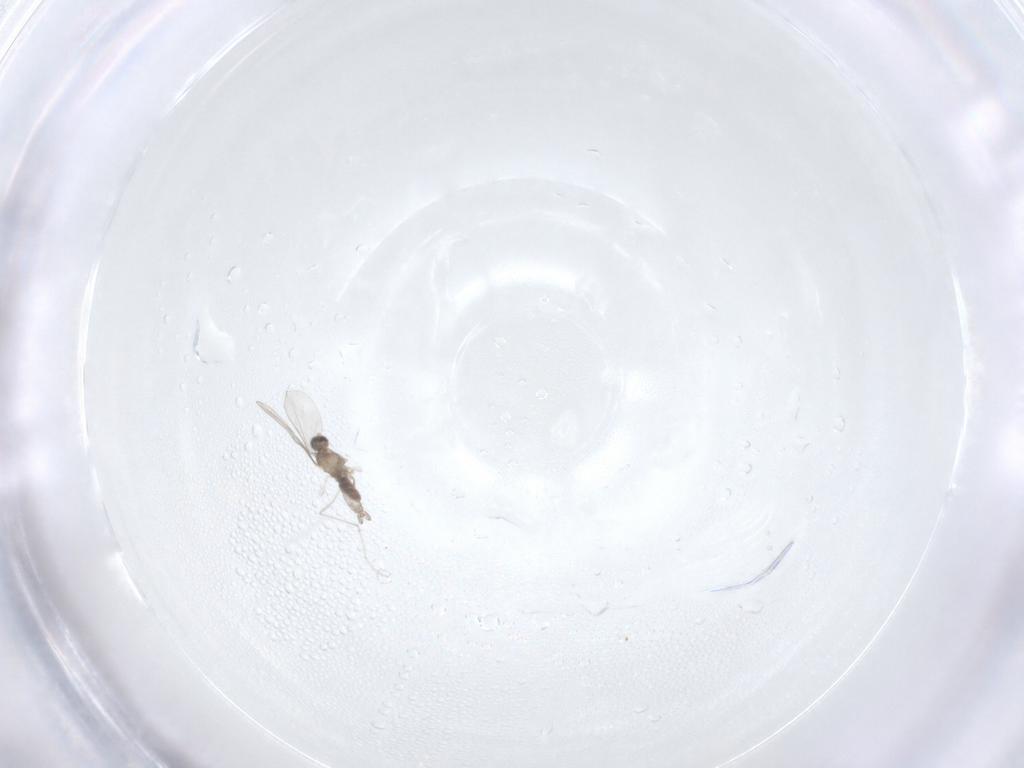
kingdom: Animalia
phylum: Arthropoda
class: Insecta
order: Diptera
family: Cecidomyiidae
